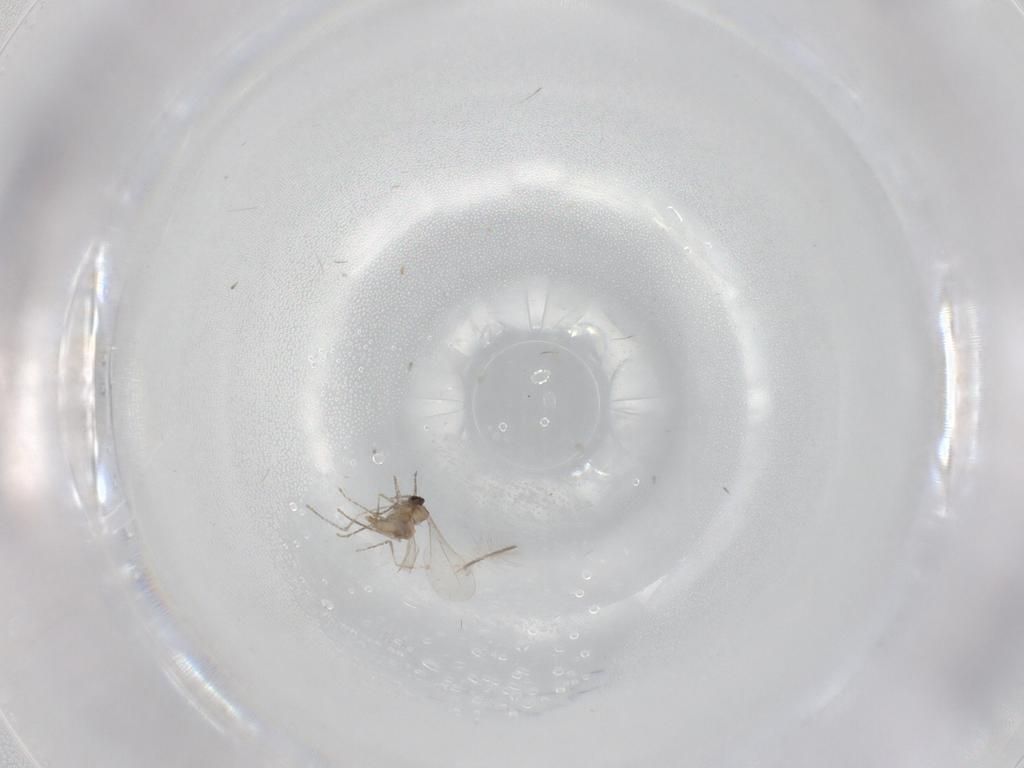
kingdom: Animalia
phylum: Arthropoda
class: Insecta
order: Diptera
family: Cecidomyiidae
